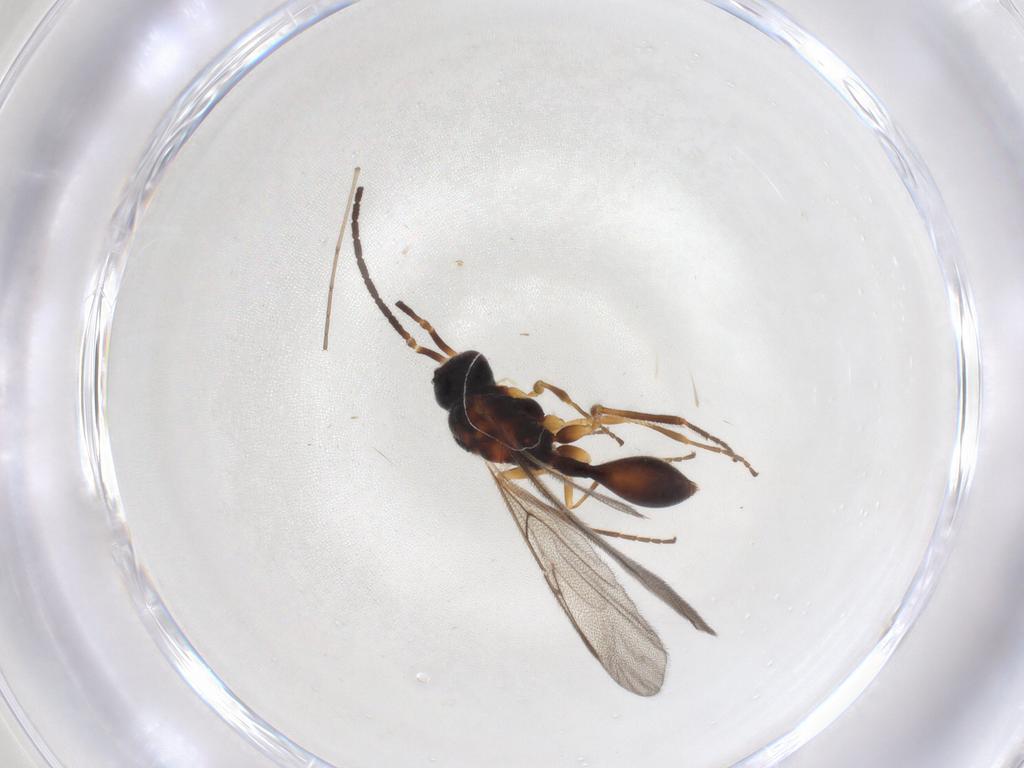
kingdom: Animalia
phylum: Arthropoda
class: Insecta
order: Hymenoptera
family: Diapriidae
